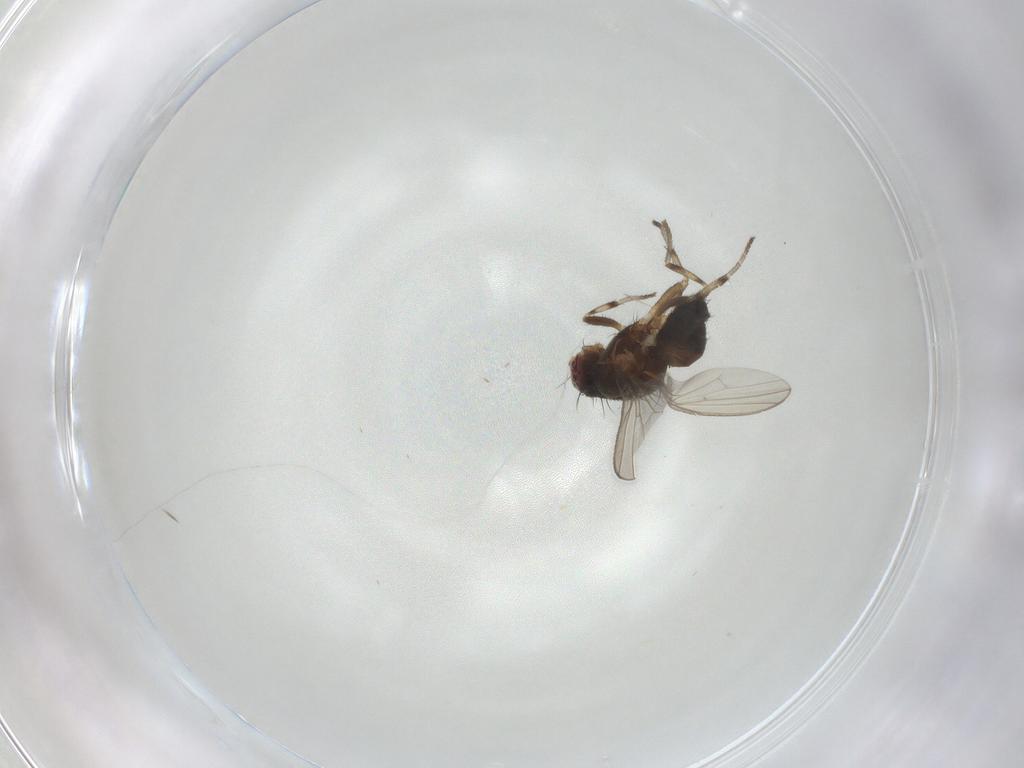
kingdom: Animalia
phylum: Arthropoda
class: Insecta
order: Diptera
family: Heleomyzidae
